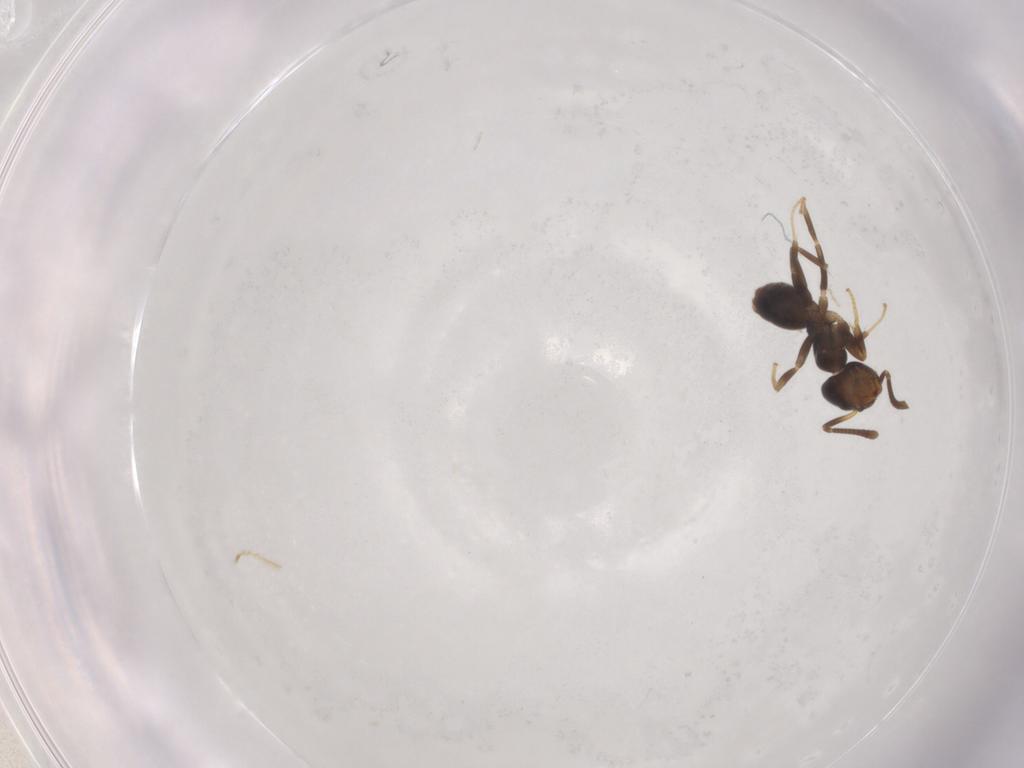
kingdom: Animalia
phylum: Arthropoda
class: Insecta
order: Hymenoptera
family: Formicidae
